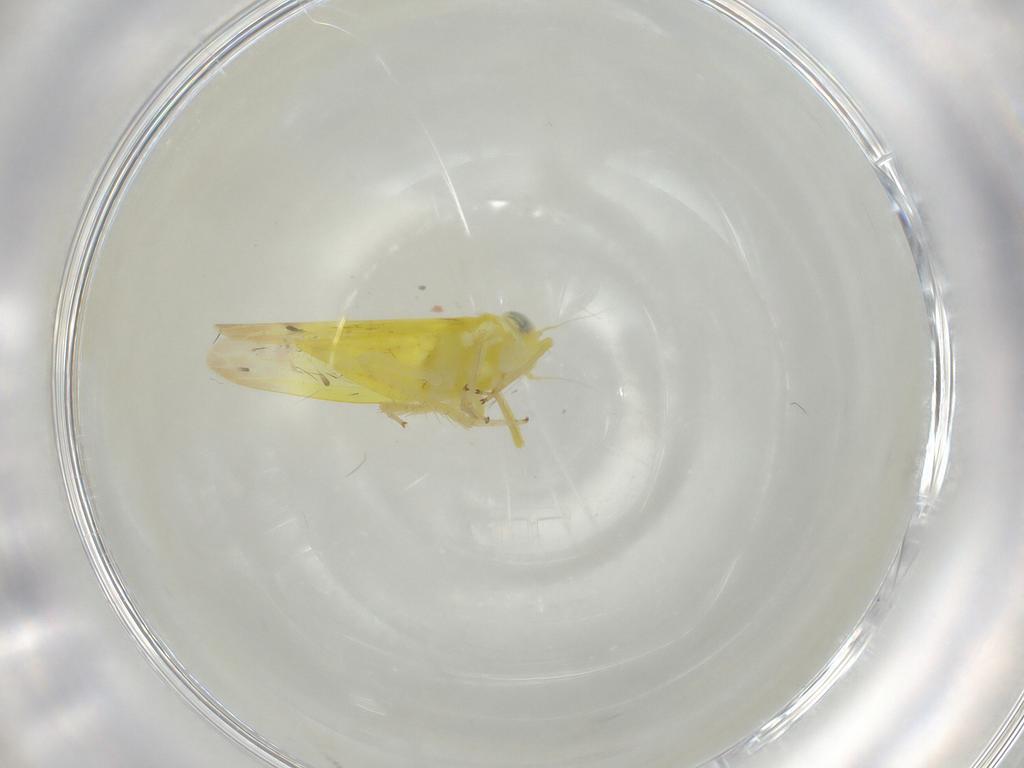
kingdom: Animalia
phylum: Arthropoda
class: Insecta
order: Hemiptera
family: Cicadellidae
